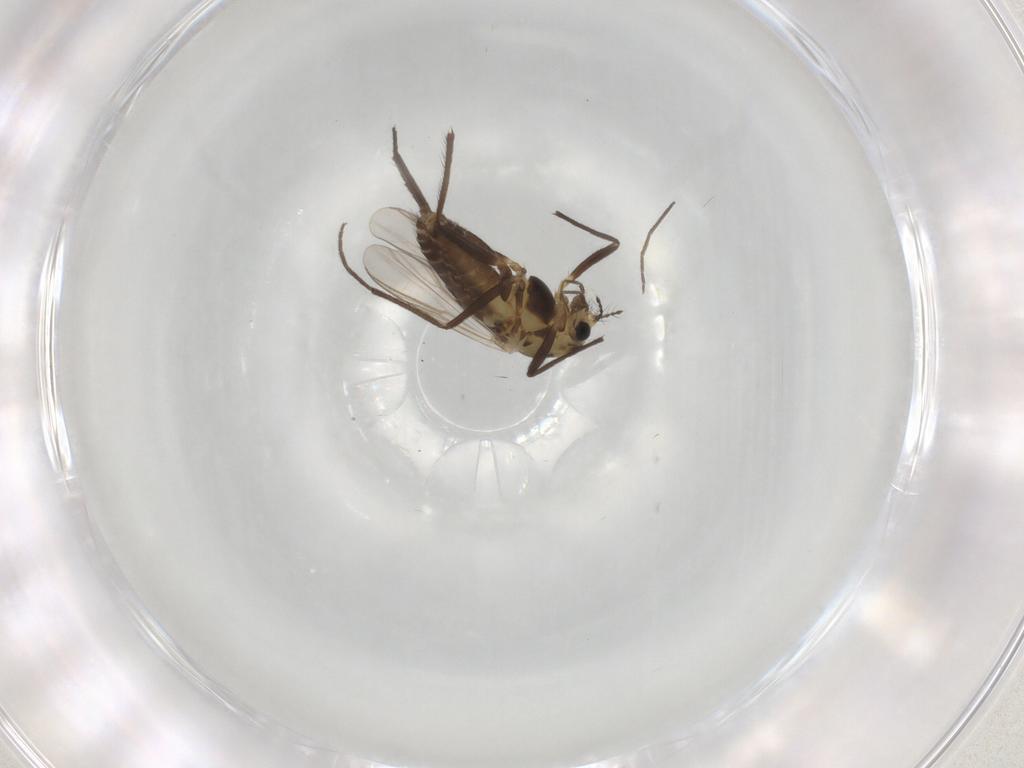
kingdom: Animalia
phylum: Arthropoda
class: Insecta
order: Diptera
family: Chironomidae
